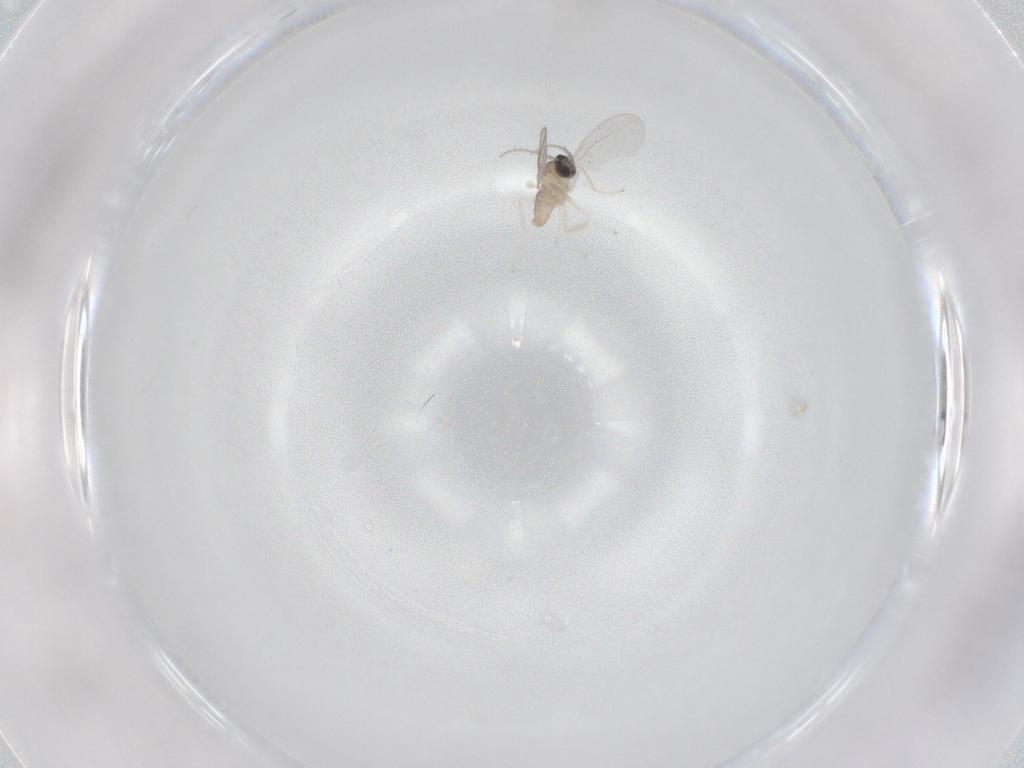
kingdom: Animalia
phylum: Arthropoda
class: Insecta
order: Diptera
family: Cecidomyiidae
